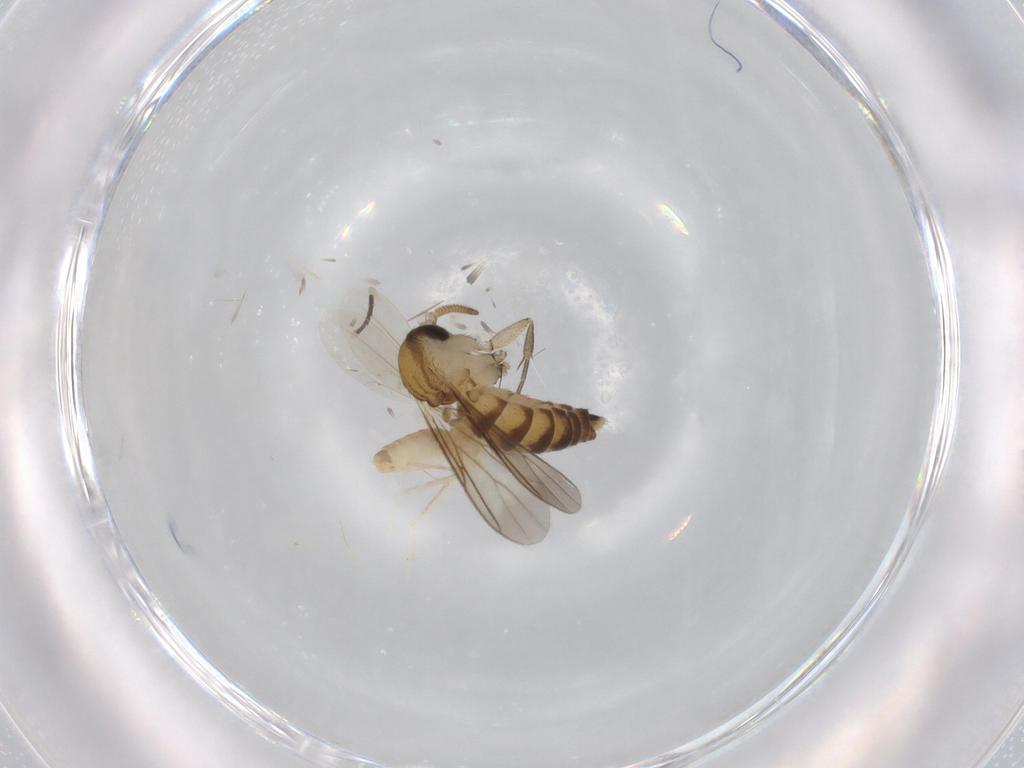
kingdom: Animalia
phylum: Arthropoda
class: Insecta
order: Diptera
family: Cecidomyiidae
